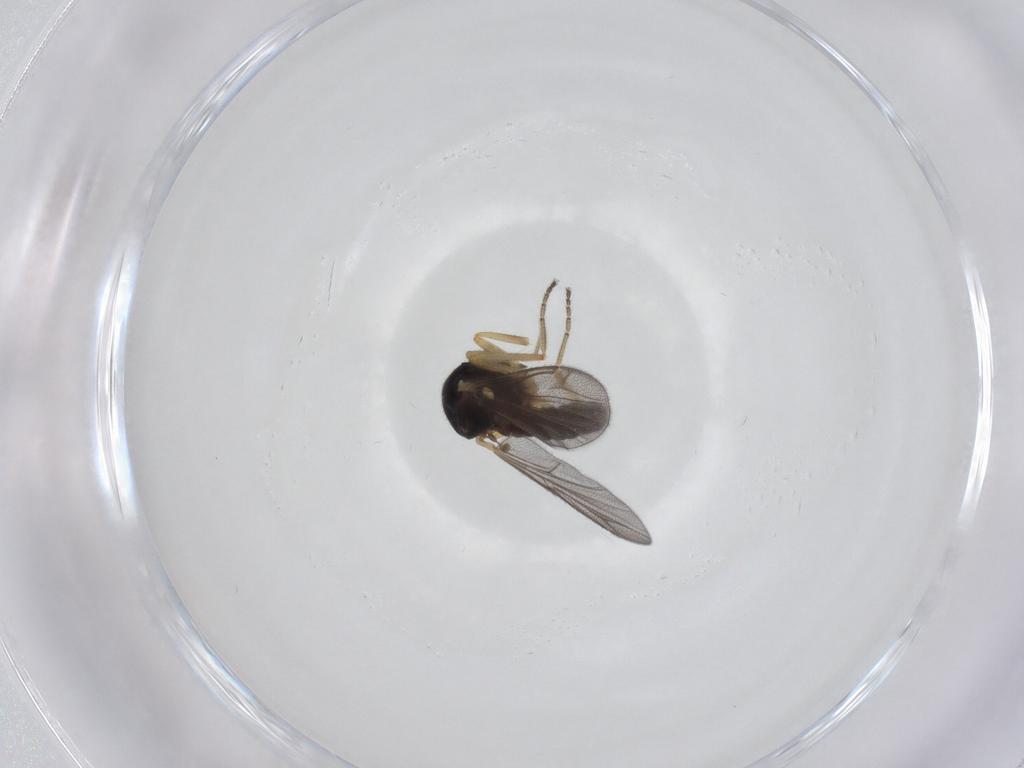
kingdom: Animalia
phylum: Arthropoda
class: Insecta
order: Diptera
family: Ceratopogonidae
